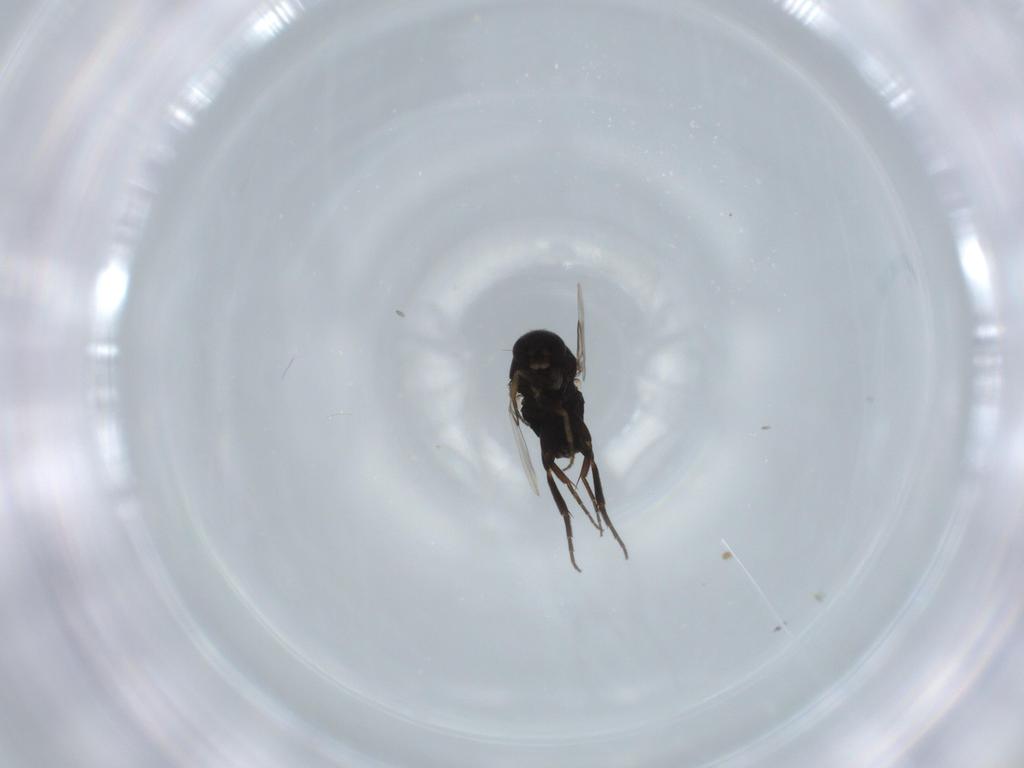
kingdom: Animalia
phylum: Arthropoda
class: Insecta
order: Diptera
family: Phoridae
